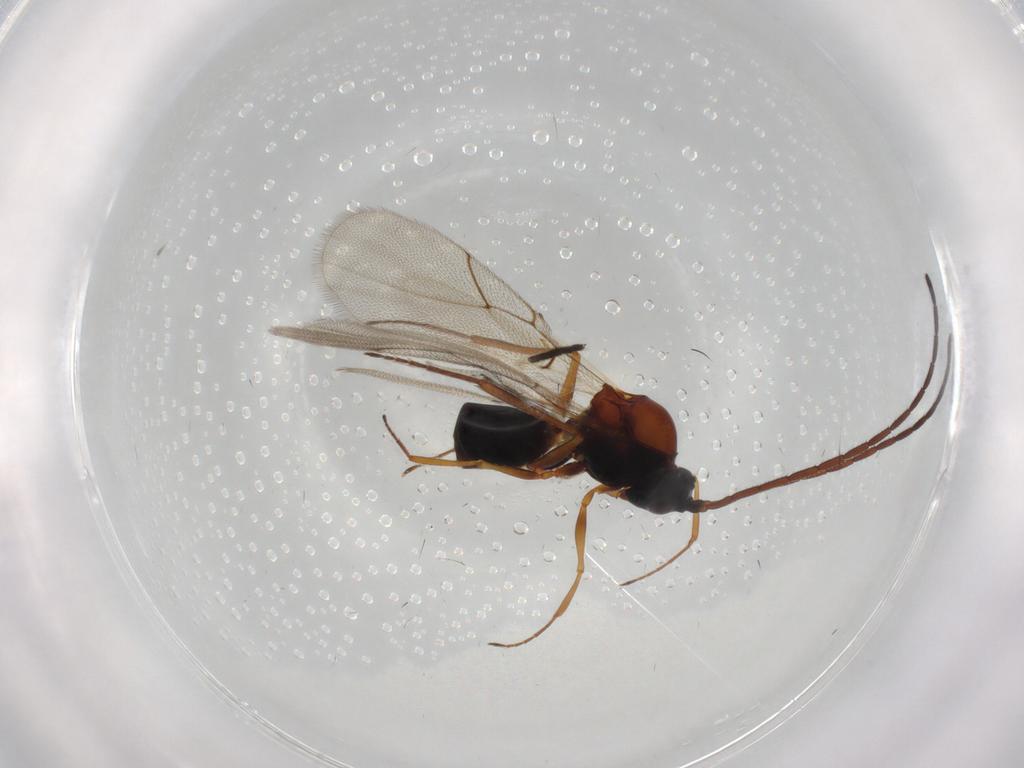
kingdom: Animalia
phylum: Arthropoda
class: Insecta
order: Hymenoptera
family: Figitidae
